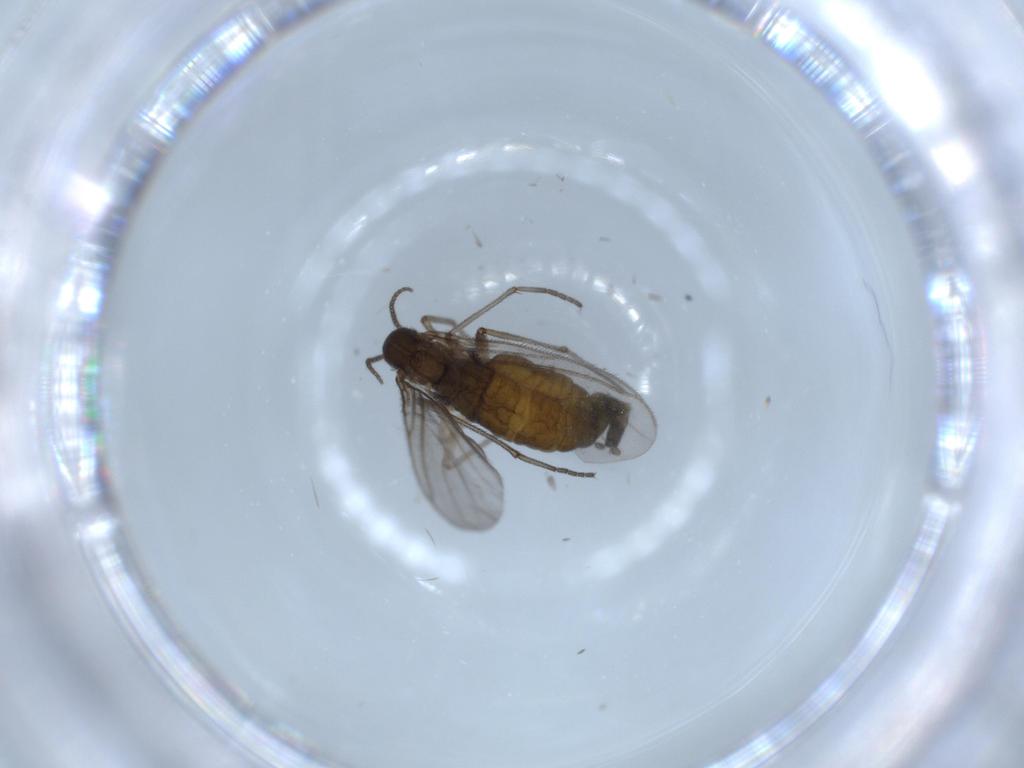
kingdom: Animalia
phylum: Arthropoda
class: Insecta
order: Diptera
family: Sciaridae
